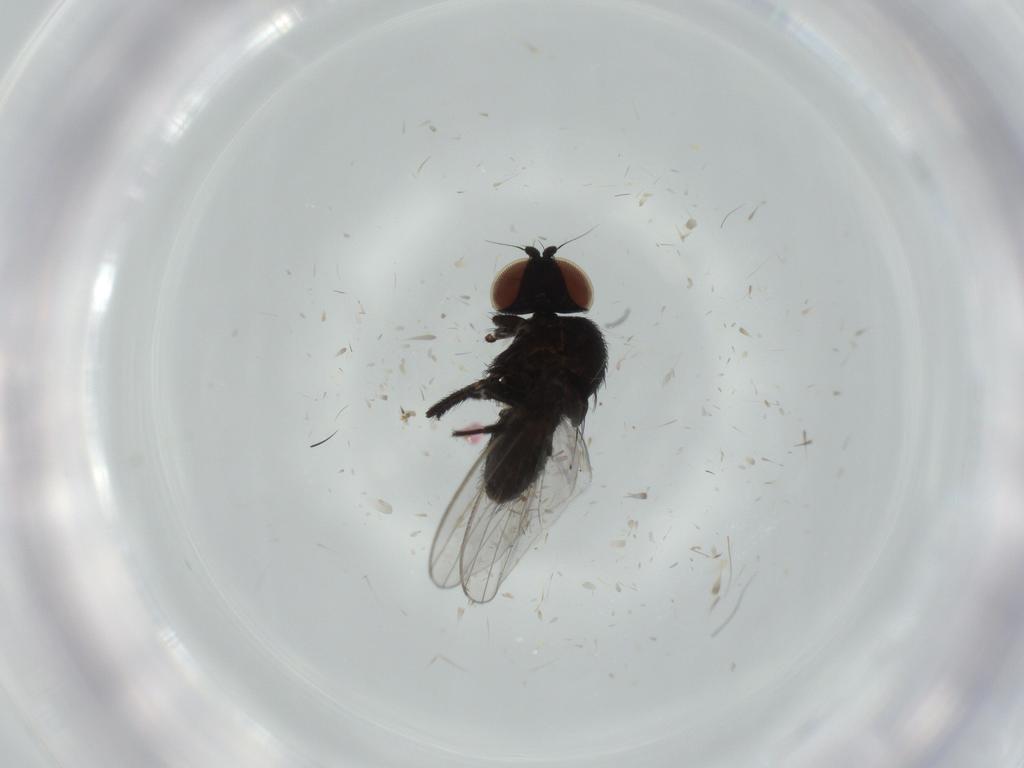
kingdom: Animalia
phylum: Arthropoda
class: Insecta
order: Diptera
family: Milichiidae
